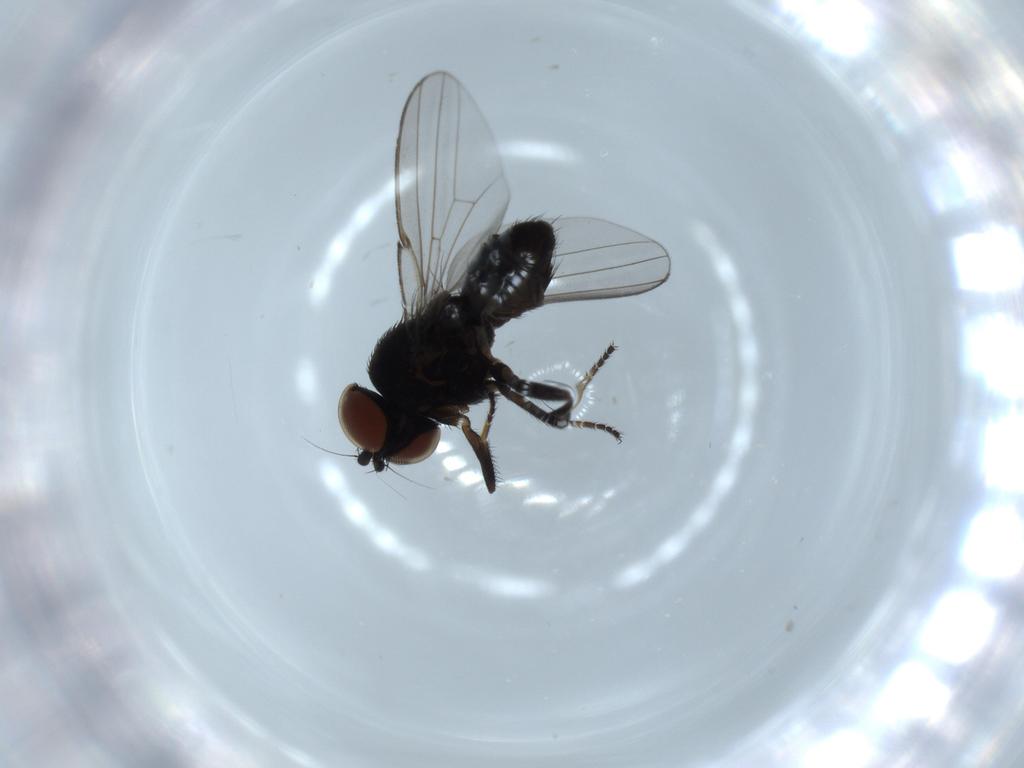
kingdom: Animalia
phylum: Arthropoda
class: Insecta
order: Diptera
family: Milichiidae
